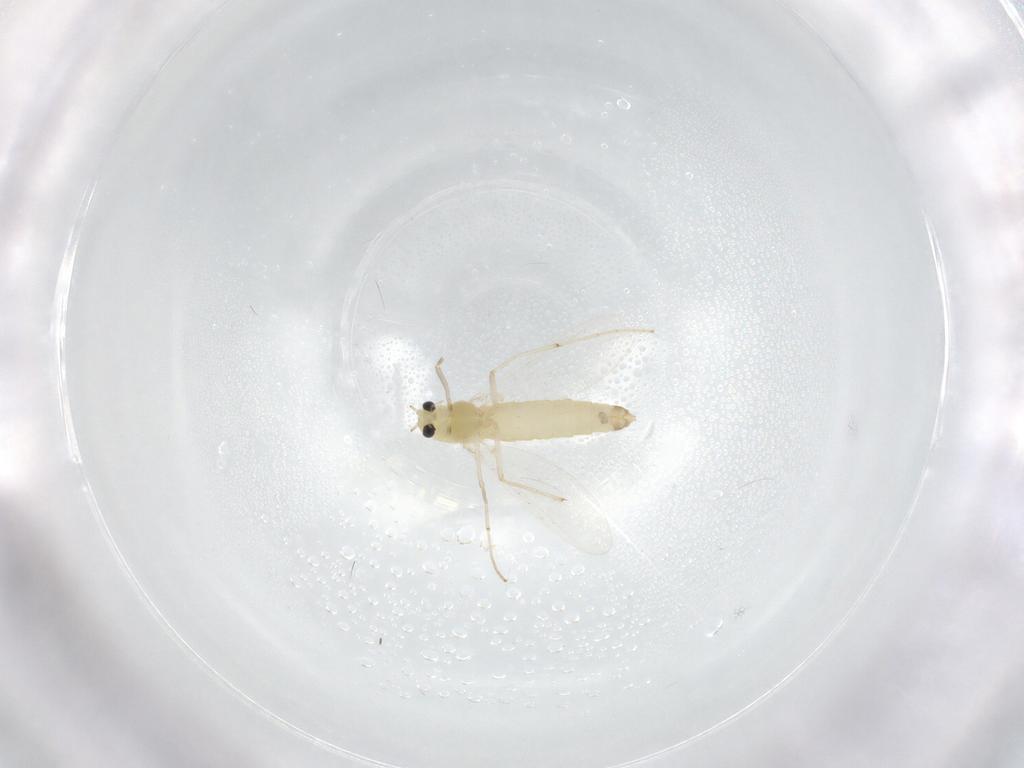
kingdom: Animalia
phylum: Arthropoda
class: Insecta
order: Diptera
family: Chironomidae
